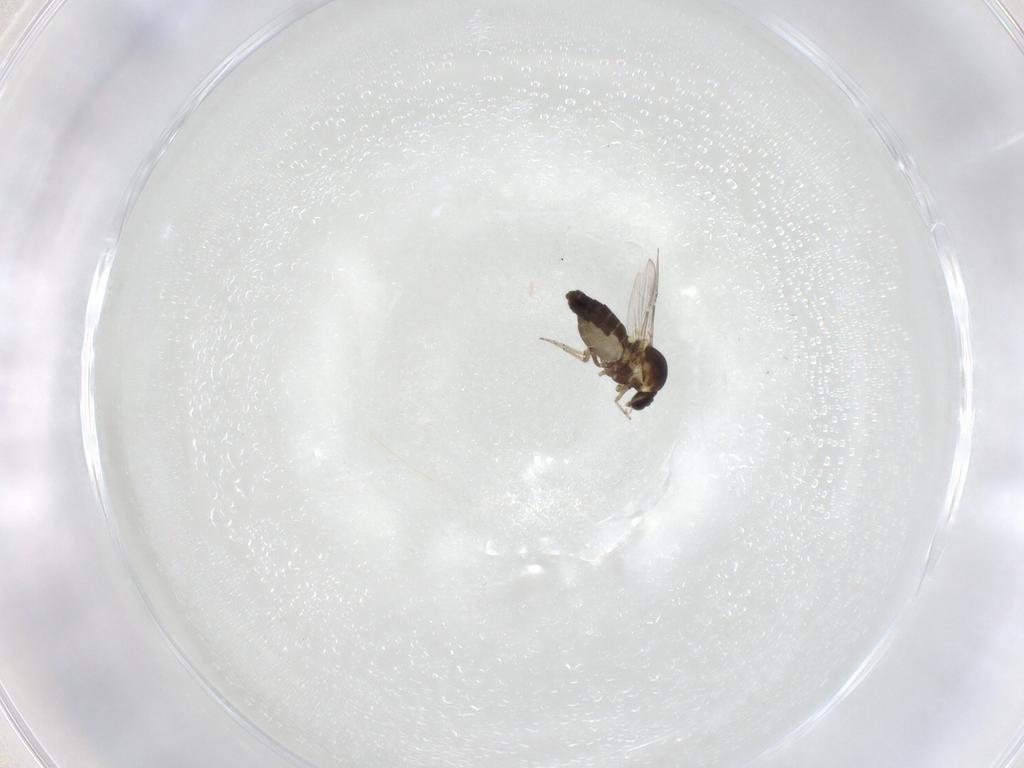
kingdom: Animalia
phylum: Arthropoda
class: Insecta
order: Diptera
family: Ceratopogonidae
